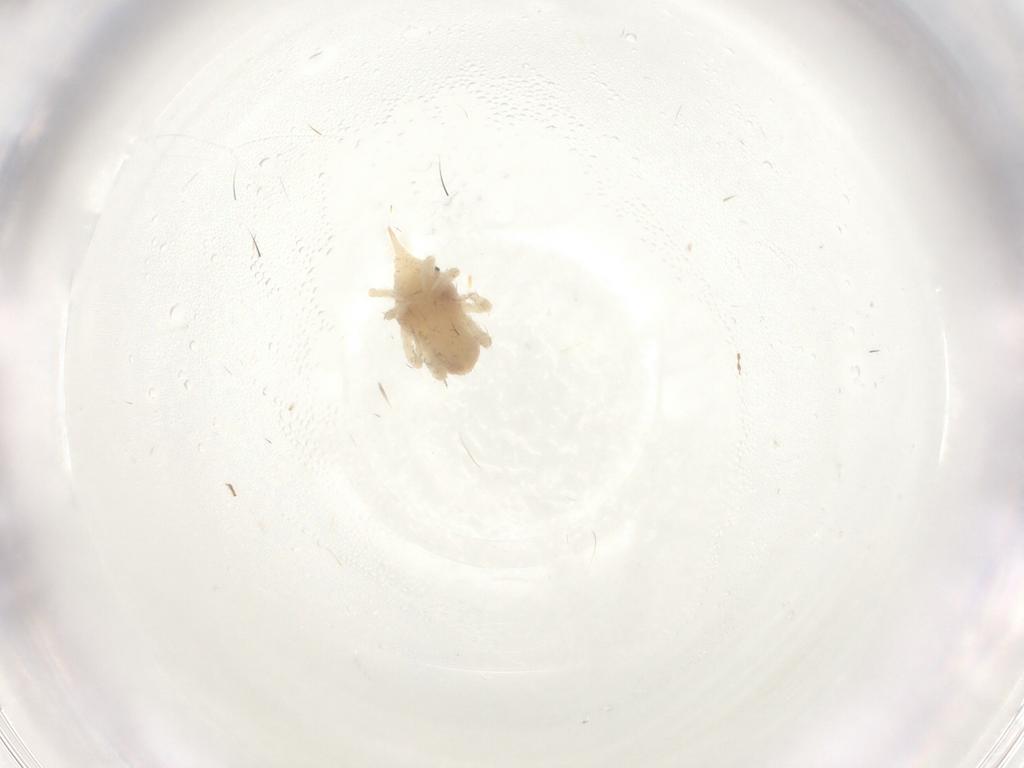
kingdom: Animalia
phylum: Arthropoda
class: Arachnida
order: Trombidiformes
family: Bdellidae
